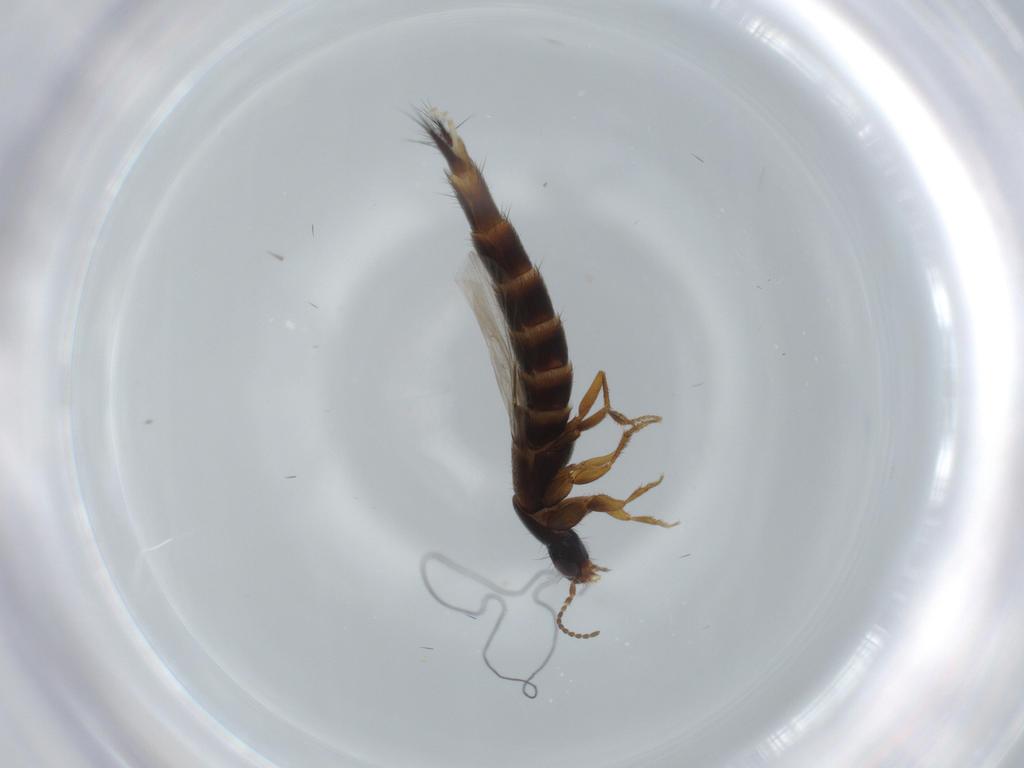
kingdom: Animalia
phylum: Arthropoda
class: Insecta
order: Coleoptera
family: Staphylinidae
